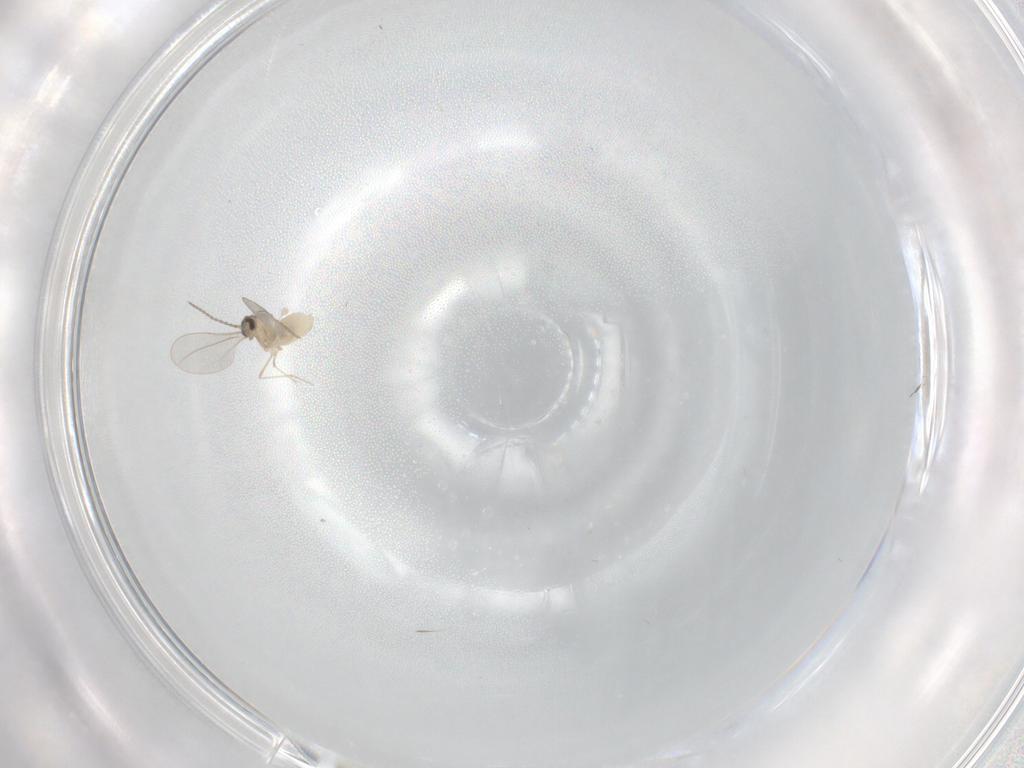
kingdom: Animalia
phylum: Arthropoda
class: Insecta
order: Diptera
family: Cecidomyiidae
